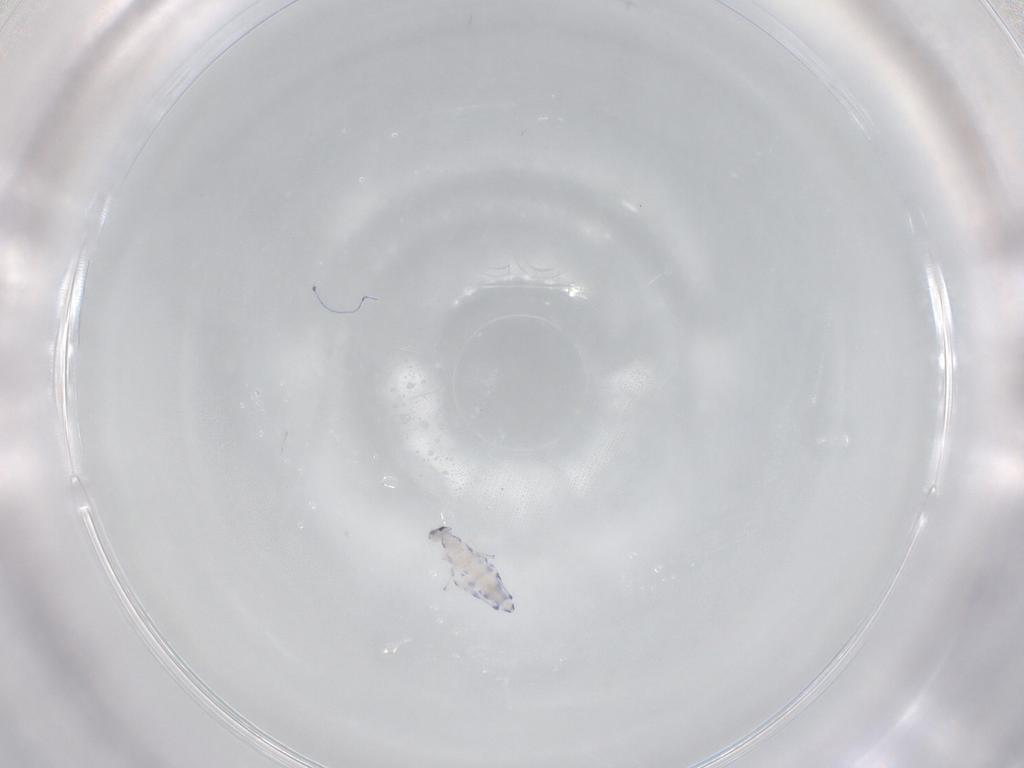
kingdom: Animalia
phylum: Arthropoda
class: Collembola
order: Entomobryomorpha
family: Entomobryidae
